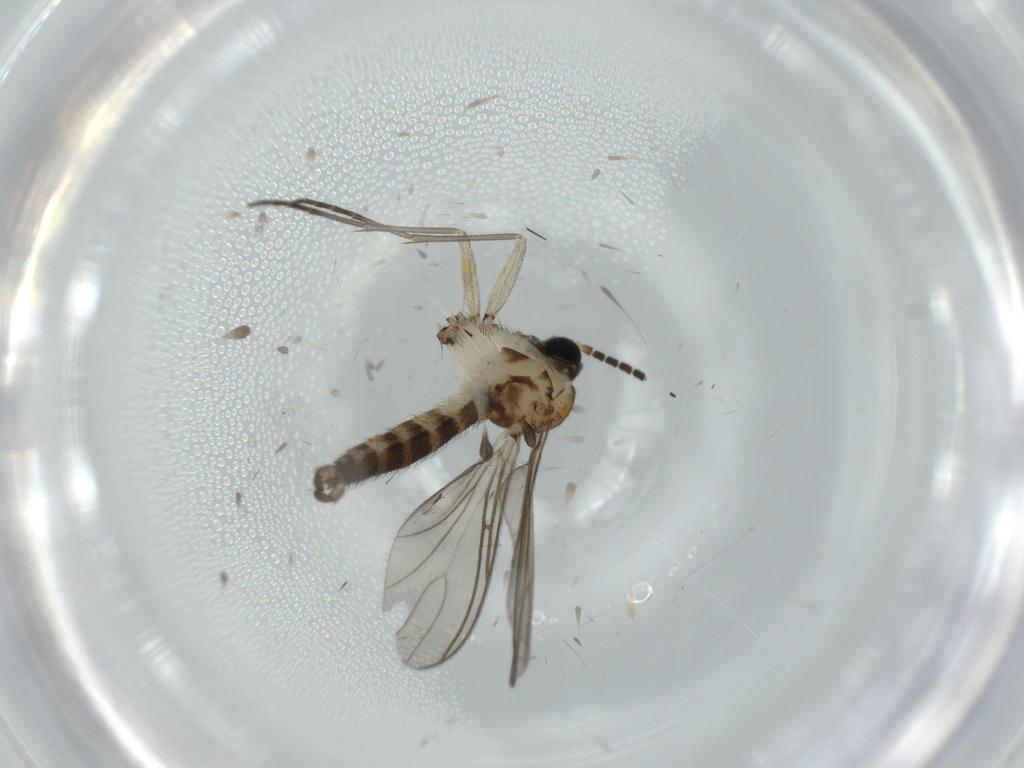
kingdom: Animalia
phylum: Arthropoda
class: Insecta
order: Diptera
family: Sciaridae
